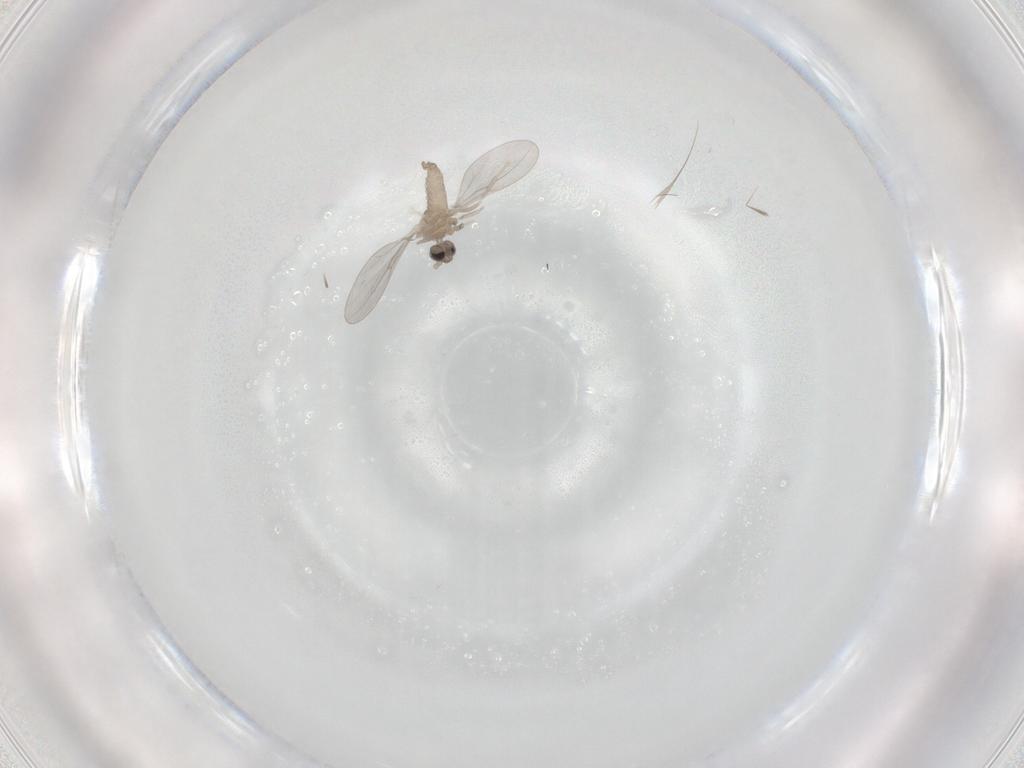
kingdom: Animalia
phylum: Arthropoda
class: Insecta
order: Diptera
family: Chironomidae
